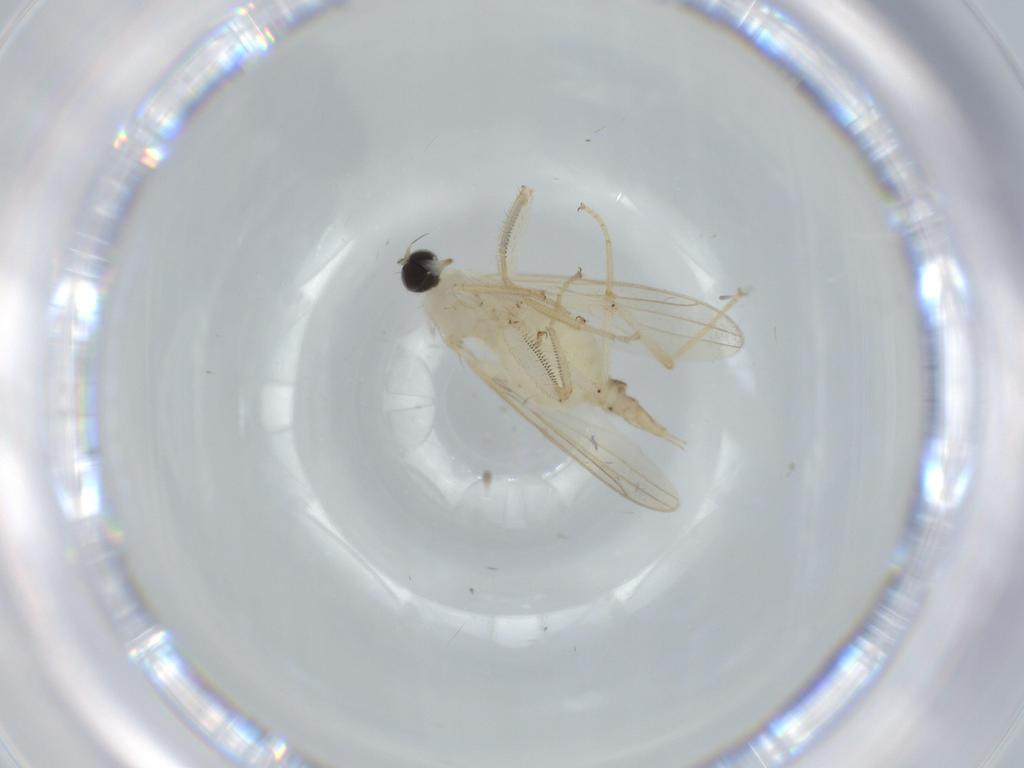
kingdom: Animalia
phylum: Arthropoda
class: Insecta
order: Diptera
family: Hybotidae
